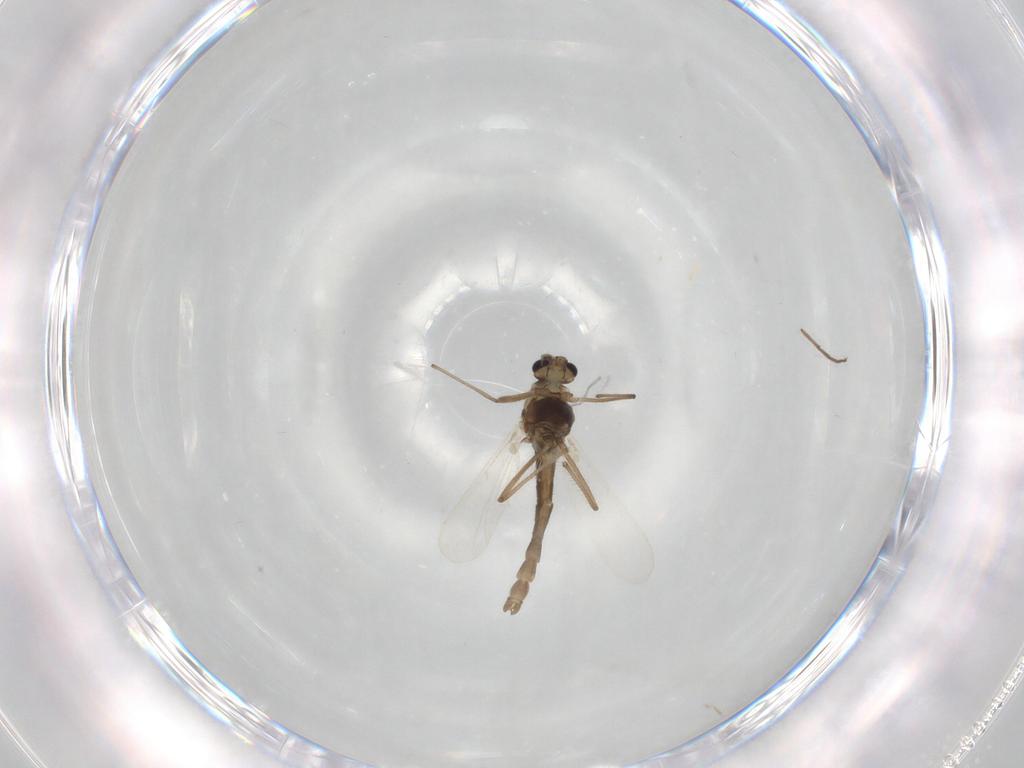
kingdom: Animalia
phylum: Arthropoda
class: Insecta
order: Diptera
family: Chironomidae
